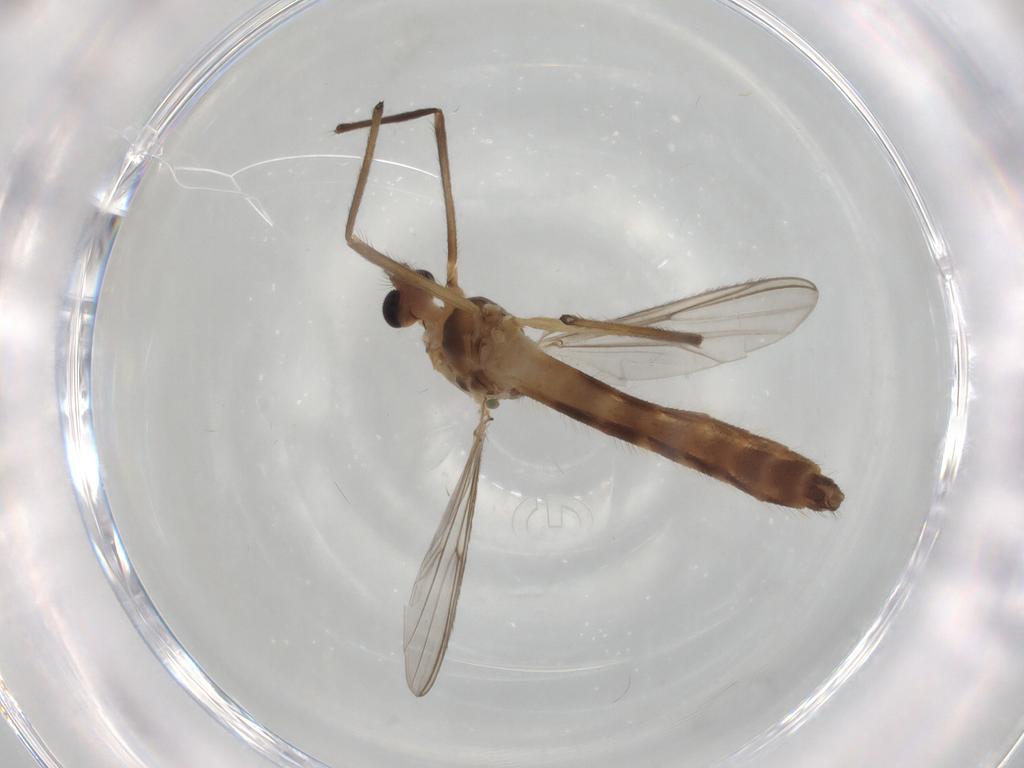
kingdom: Animalia
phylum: Arthropoda
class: Insecta
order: Diptera
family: Chironomidae
